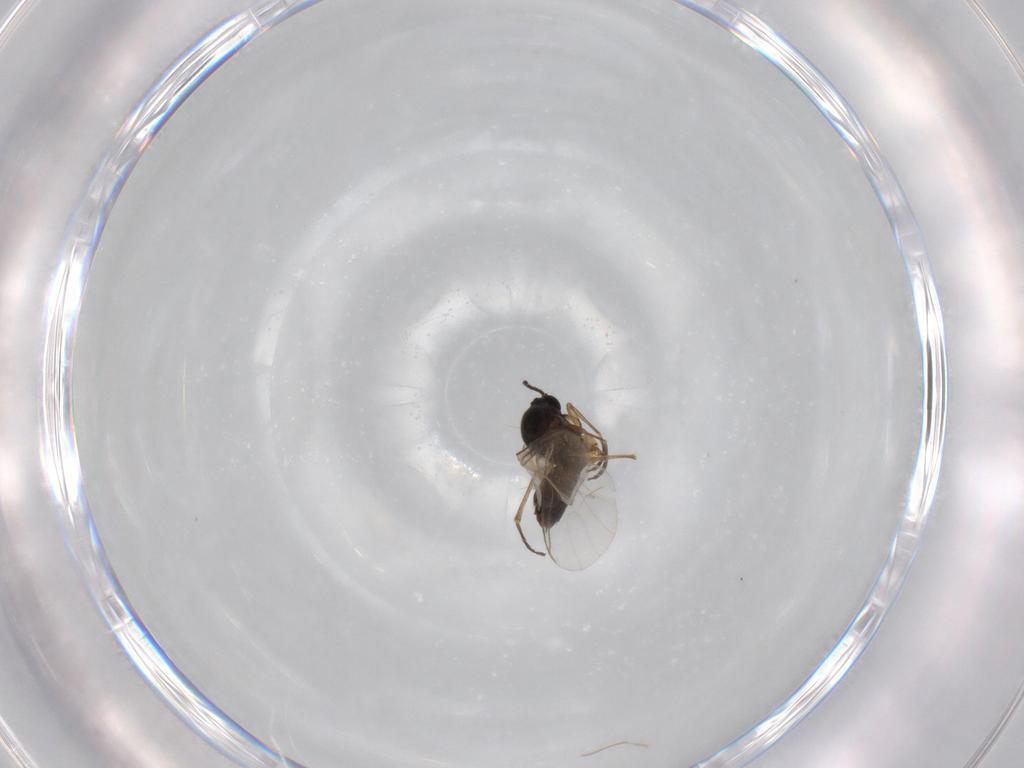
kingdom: Animalia
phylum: Arthropoda
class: Insecta
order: Diptera
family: Sciaridae
